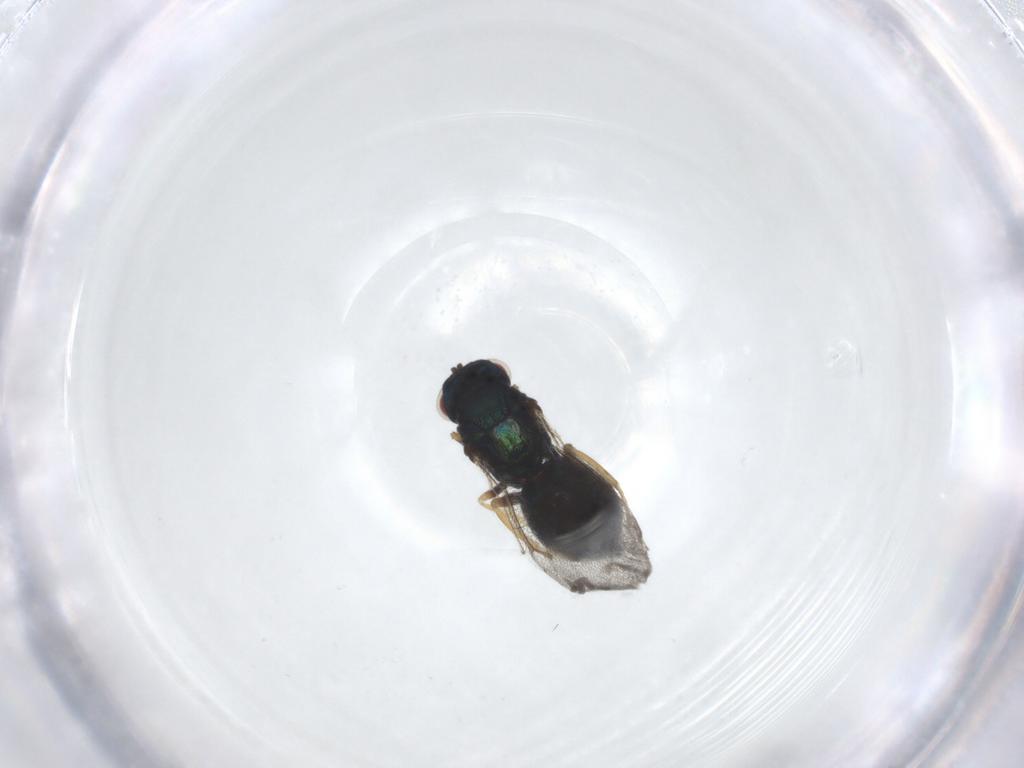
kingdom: Animalia
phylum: Arthropoda
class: Insecta
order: Hymenoptera
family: Eulophidae
